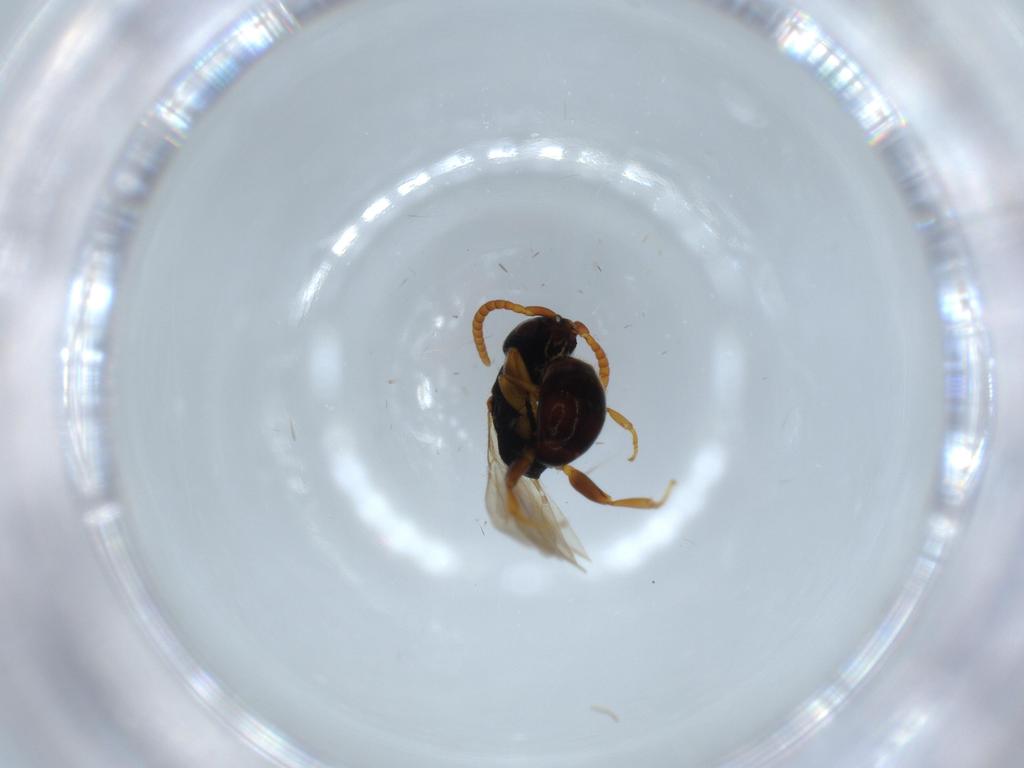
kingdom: Animalia
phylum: Arthropoda
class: Insecta
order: Hymenoptera
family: Bethylidae
